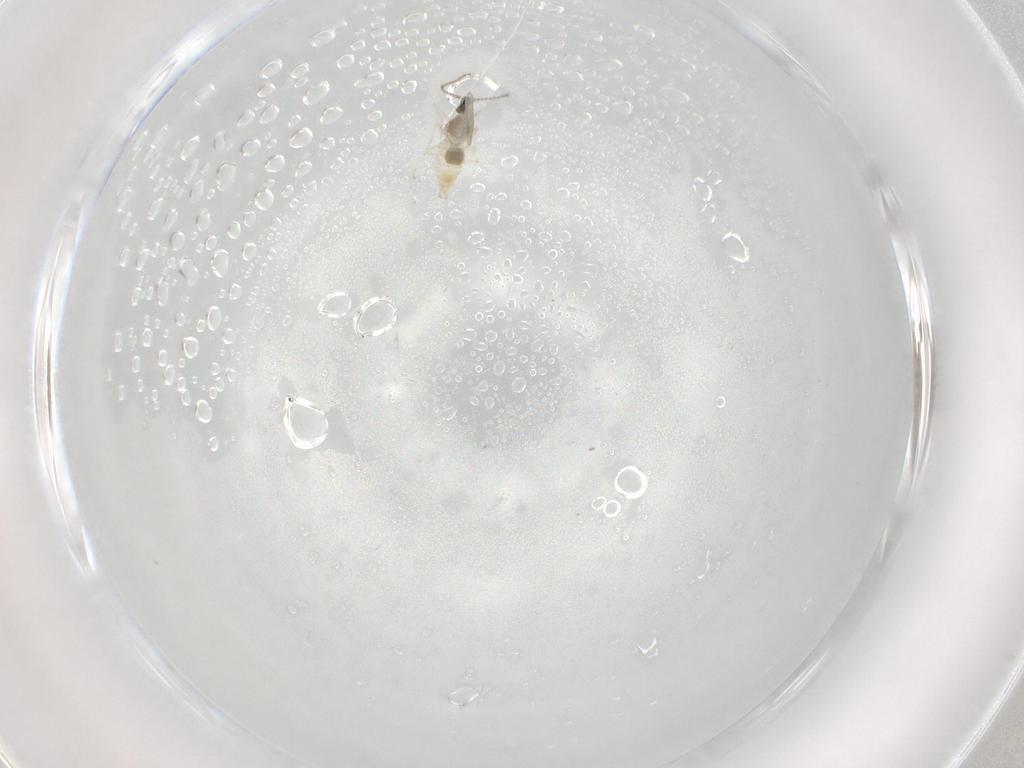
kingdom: Animalia
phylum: Arthropoda
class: Insecta
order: Diptera
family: Cecidomyiidae
